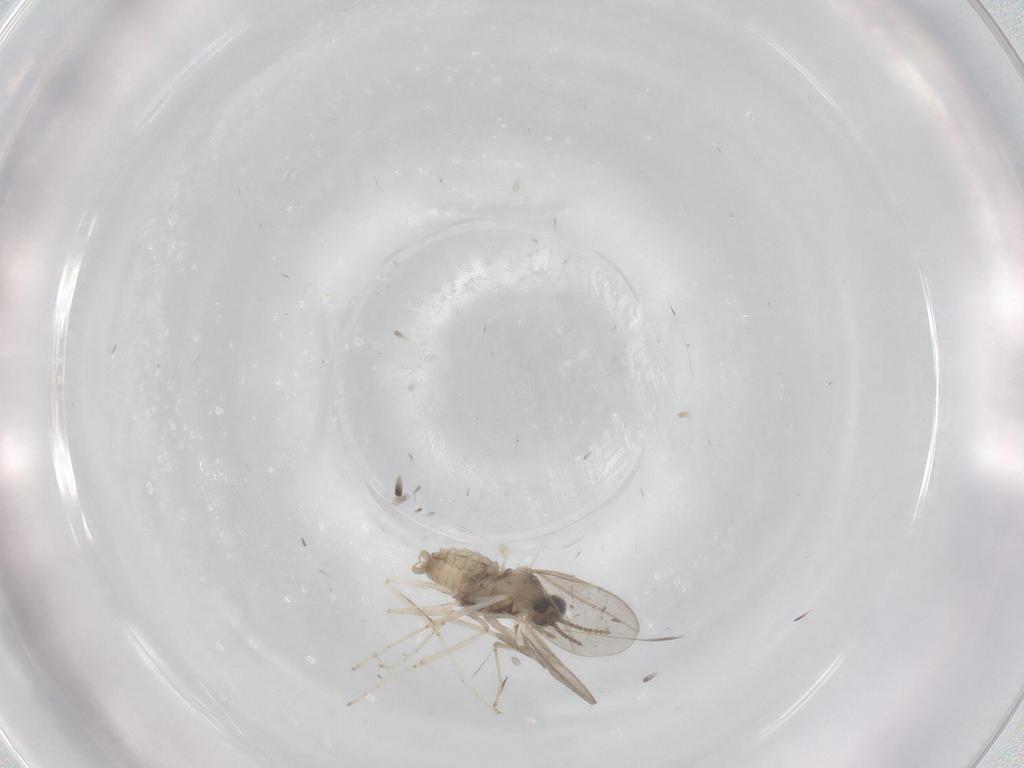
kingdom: Animalia
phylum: Arthropoda
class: Insecta
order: Diptera
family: Cecidomyiidae
